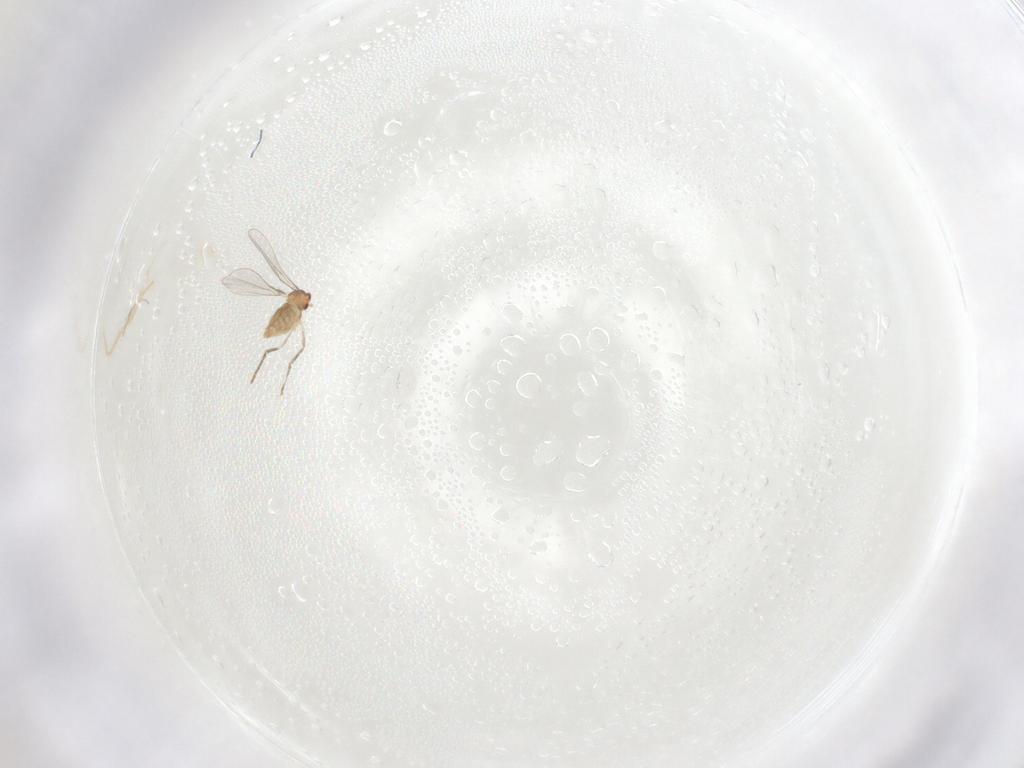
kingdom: Animalia
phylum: Arthropoda
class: Insecta
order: Diptera
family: Cecidomyiidae
